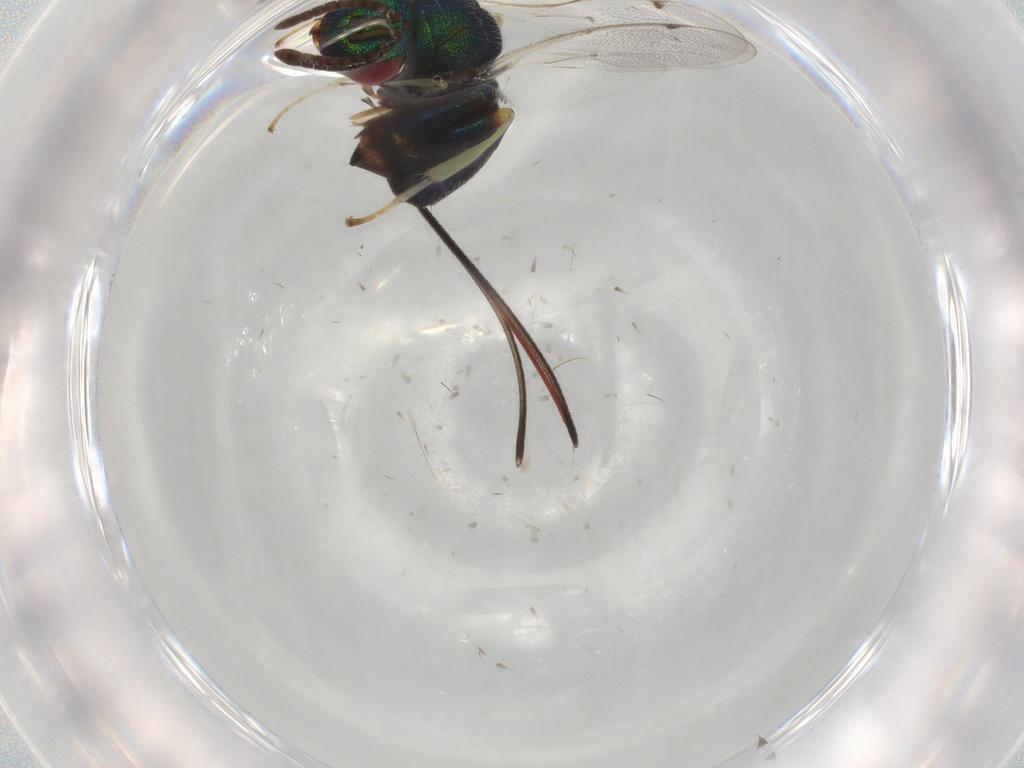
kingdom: Animalia
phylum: Arthropoda
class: Insecta
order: Hymenoptera
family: Torymidae
